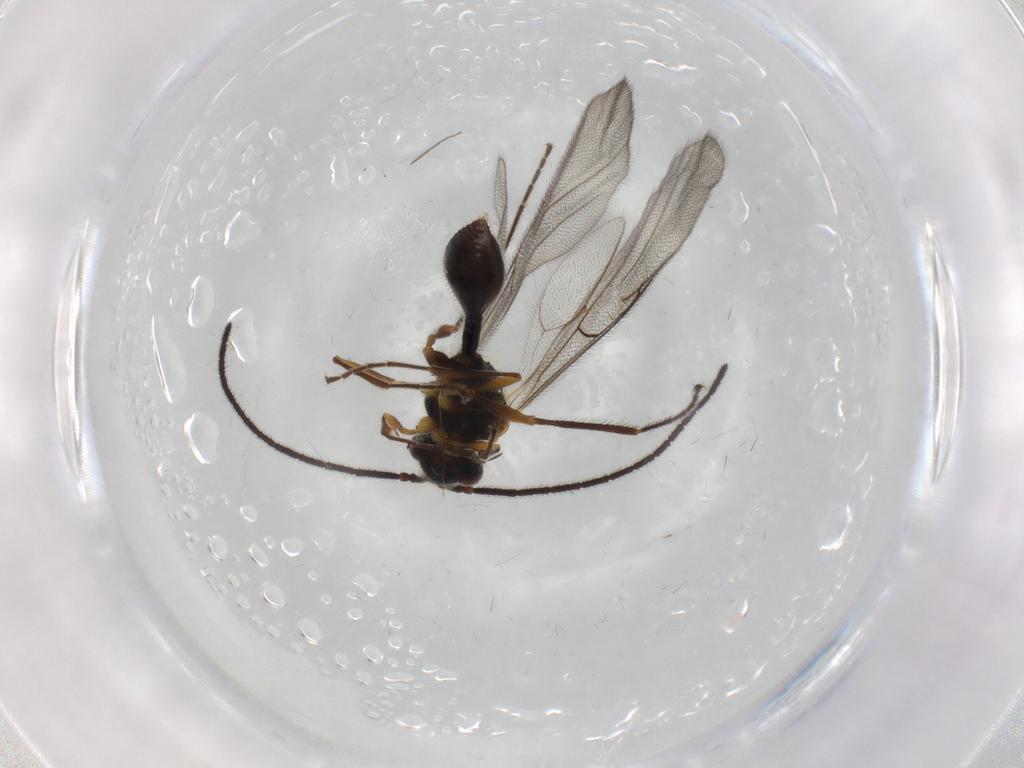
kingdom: Animalia
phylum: Arthropoda
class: Insecta
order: Hymenoptera
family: Diapriidae
